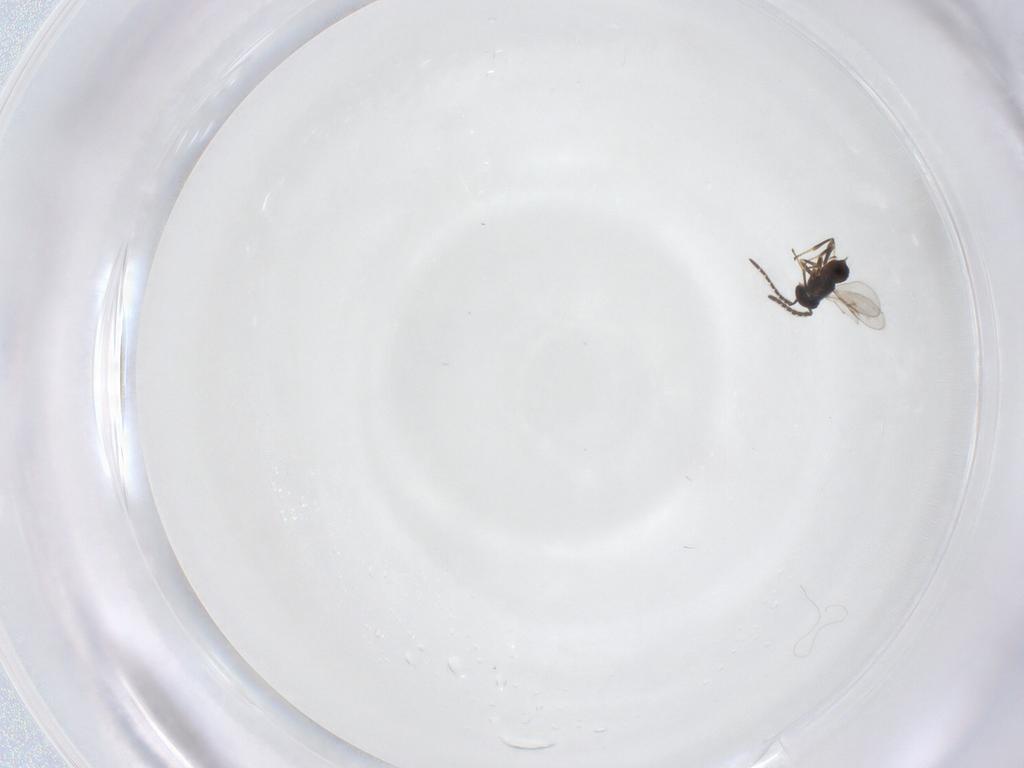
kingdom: Animalia
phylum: Arthropoda
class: Insecta
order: Hymenoptera
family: Encyrtidae
